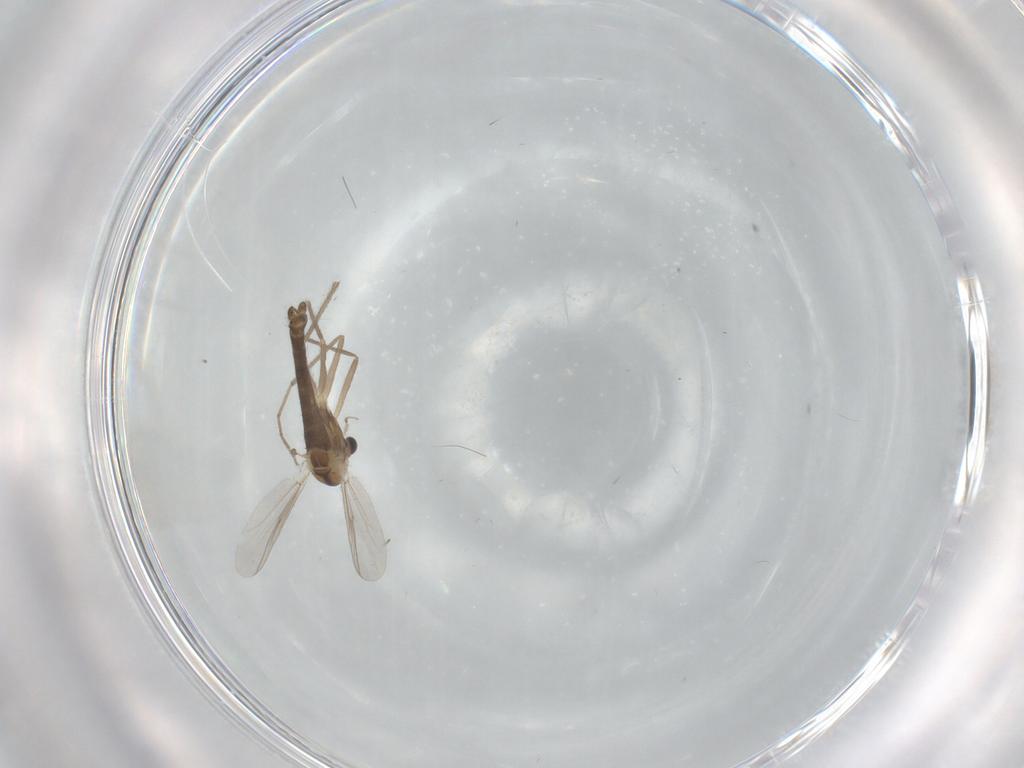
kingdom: Animalia
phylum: Arthropoda
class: Insecta
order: Diptera
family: Chironomidae
